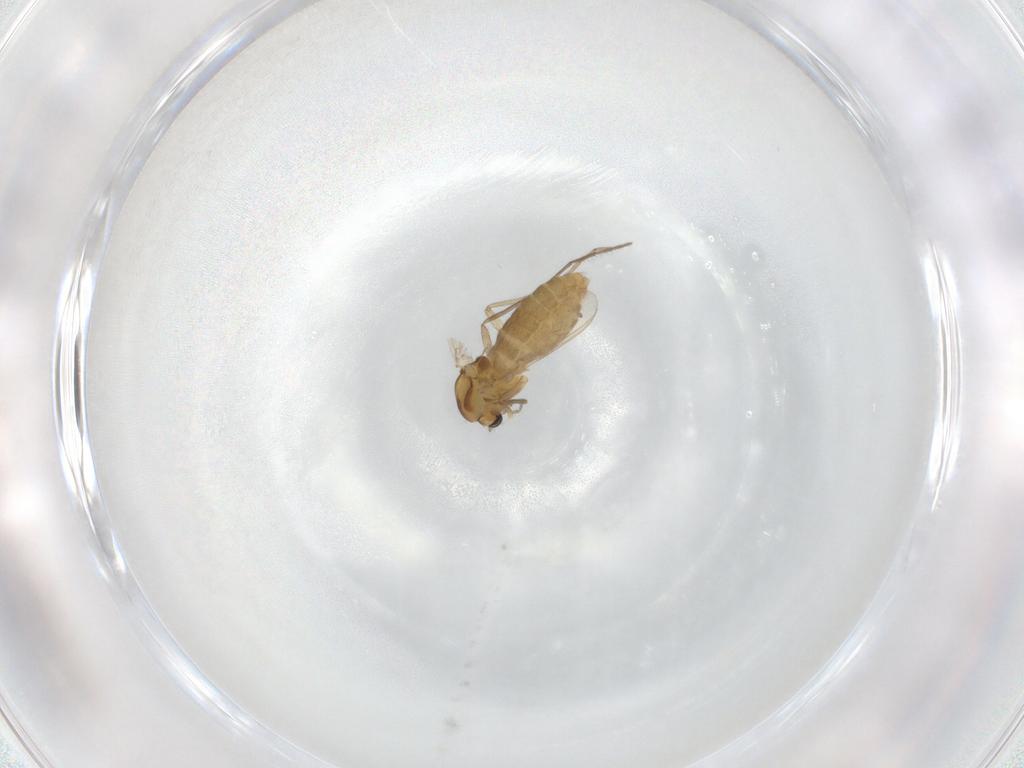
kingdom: Animalia
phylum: Arthropoda
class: Insecta
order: Diptera
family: Chironomidae
